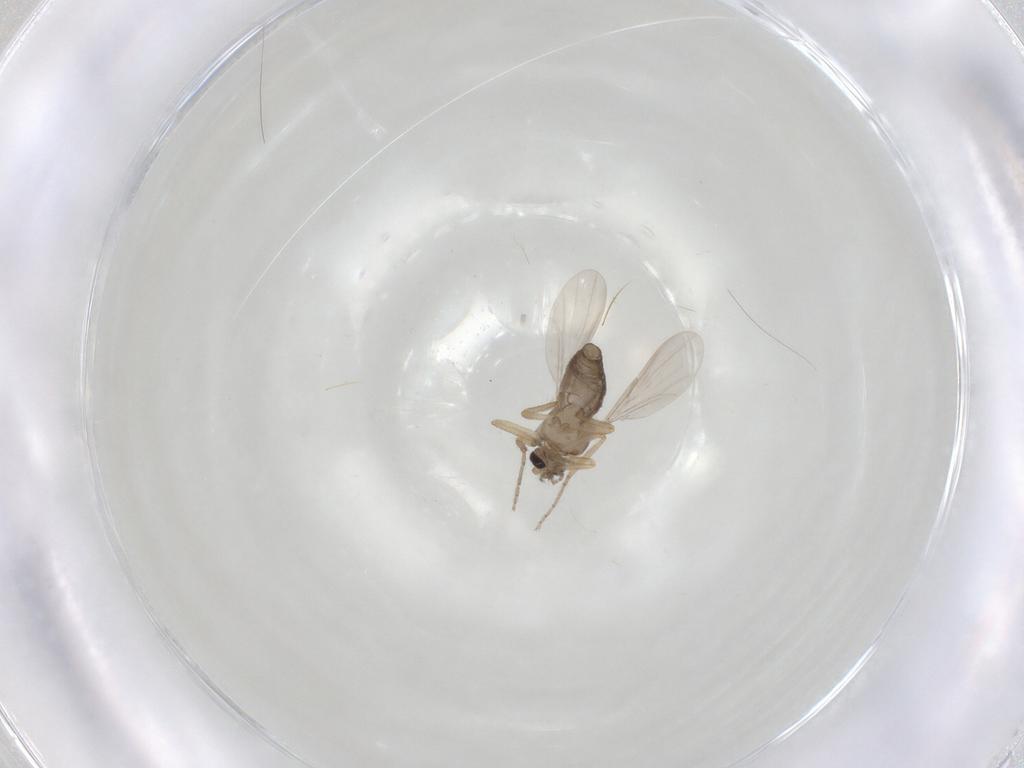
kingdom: Animalia
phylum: Arthropoda
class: Insecta
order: Diptera
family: Ceratopogonidae
